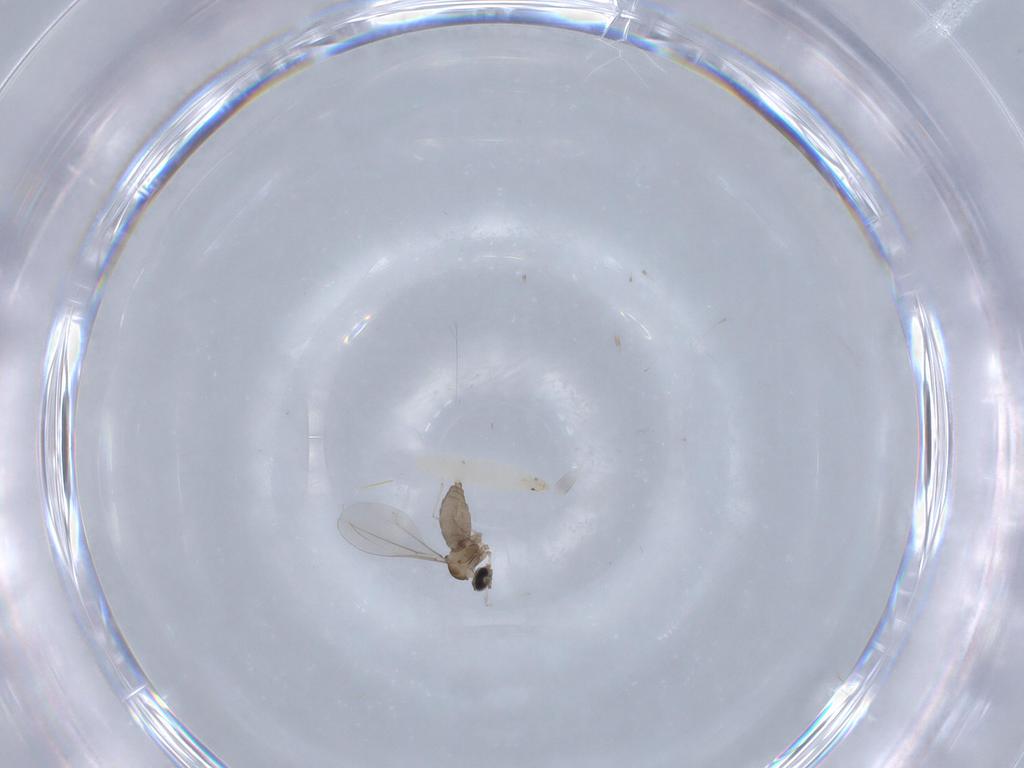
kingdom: Animalia
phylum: Arthropoda
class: Insecta
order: Diptera
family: Cecidomyiidae
